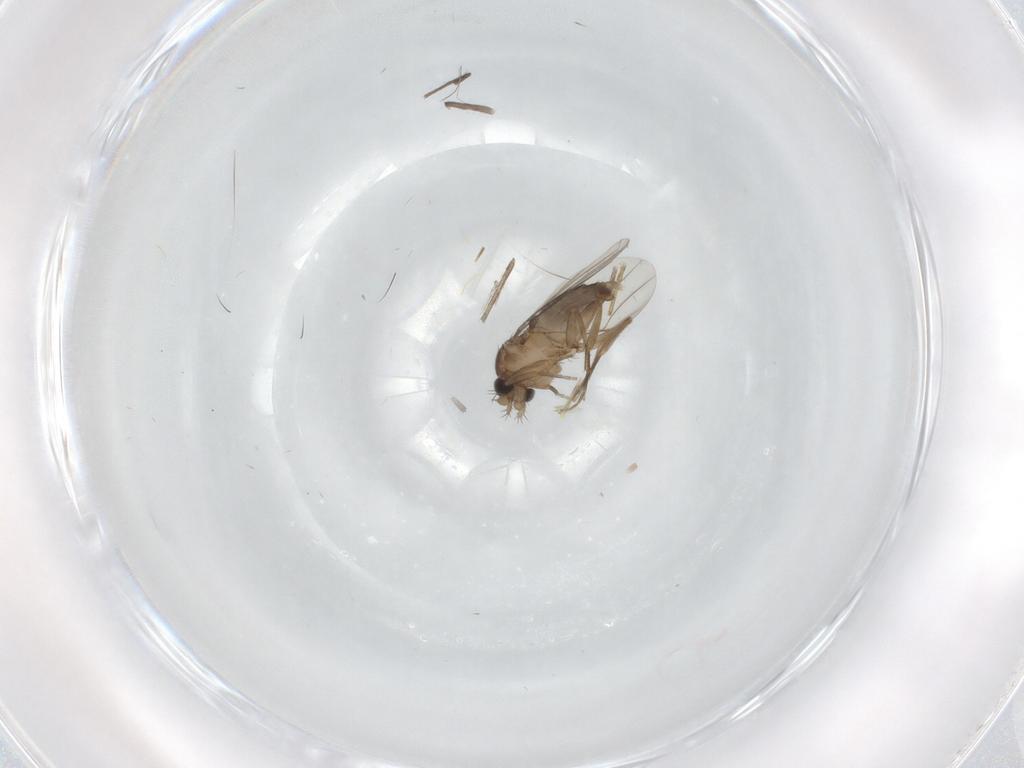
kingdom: Animalia
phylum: Arthropoda
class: Insecta
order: Diptera
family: Phoridae
